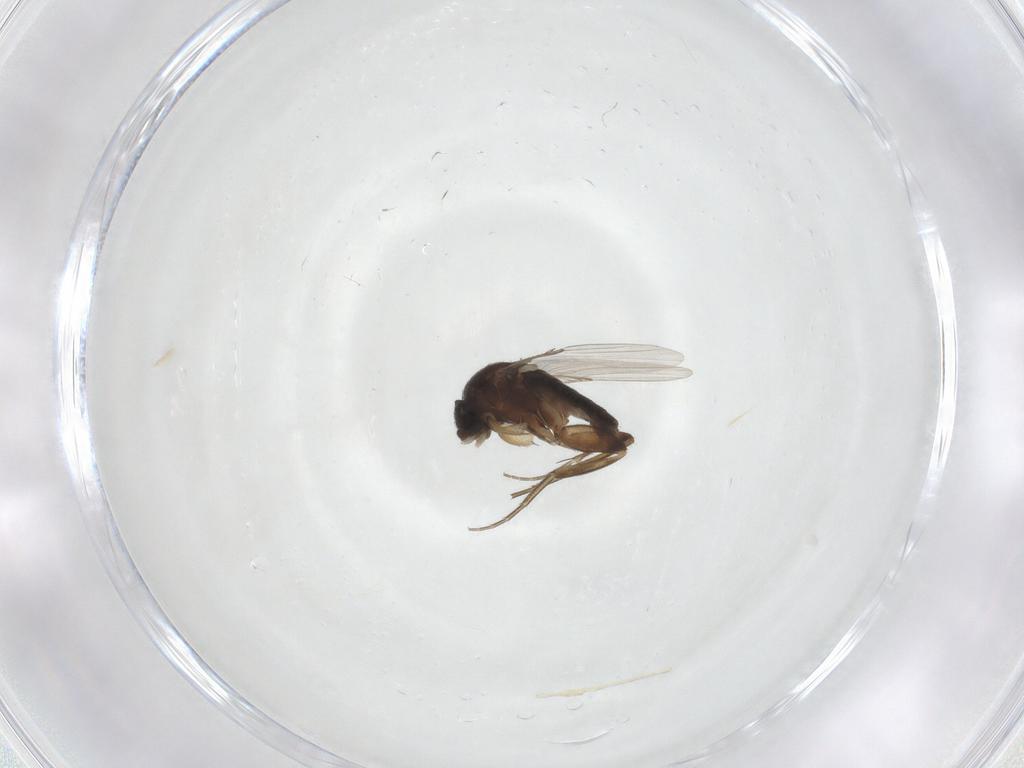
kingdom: Animalia
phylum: Arthropoda
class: Insecta
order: Diptera
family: Phoridae
